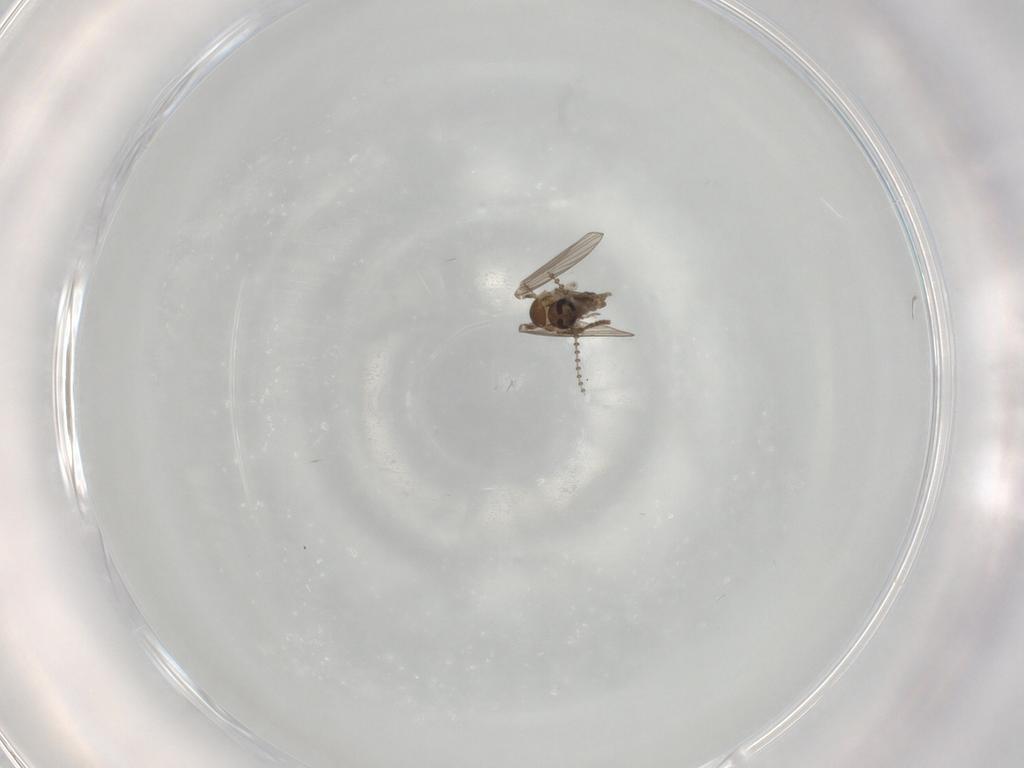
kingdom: Animalia
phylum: Arthropoda
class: Insecta
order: Diptera
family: Psychodidae
